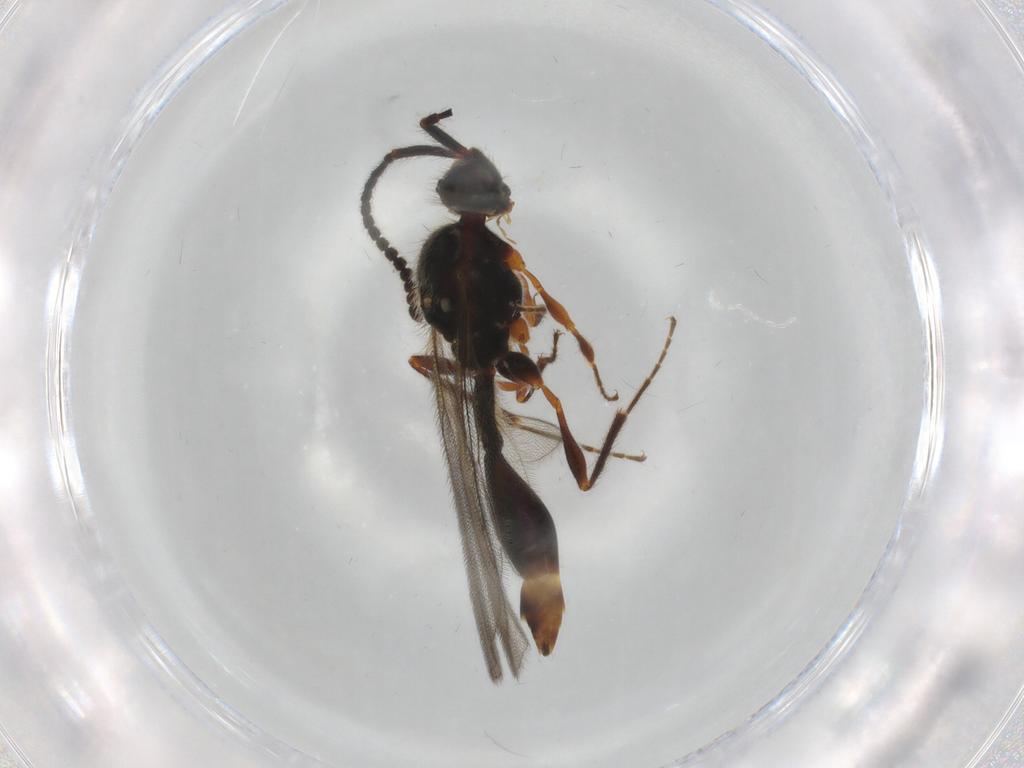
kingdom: Animalia
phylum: Arthropoda
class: Insecta
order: Hymenoptera
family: Diapriidae
